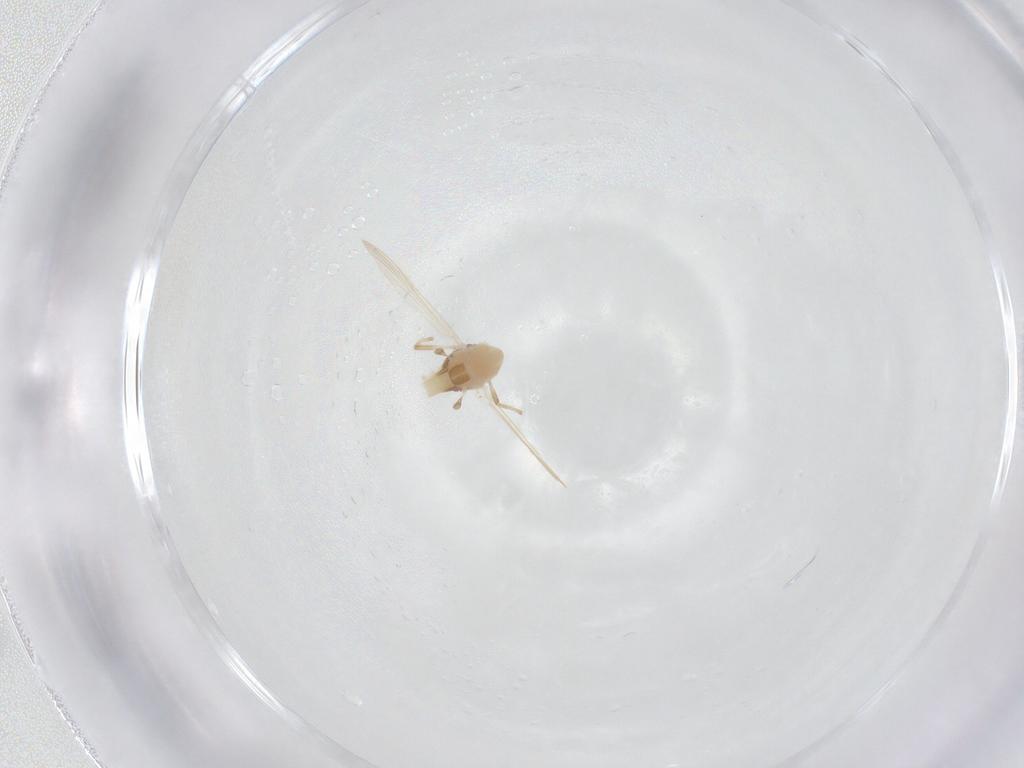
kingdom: Animalia
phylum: Arthropoda
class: Insecta
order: Diptera
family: Chironomidae
